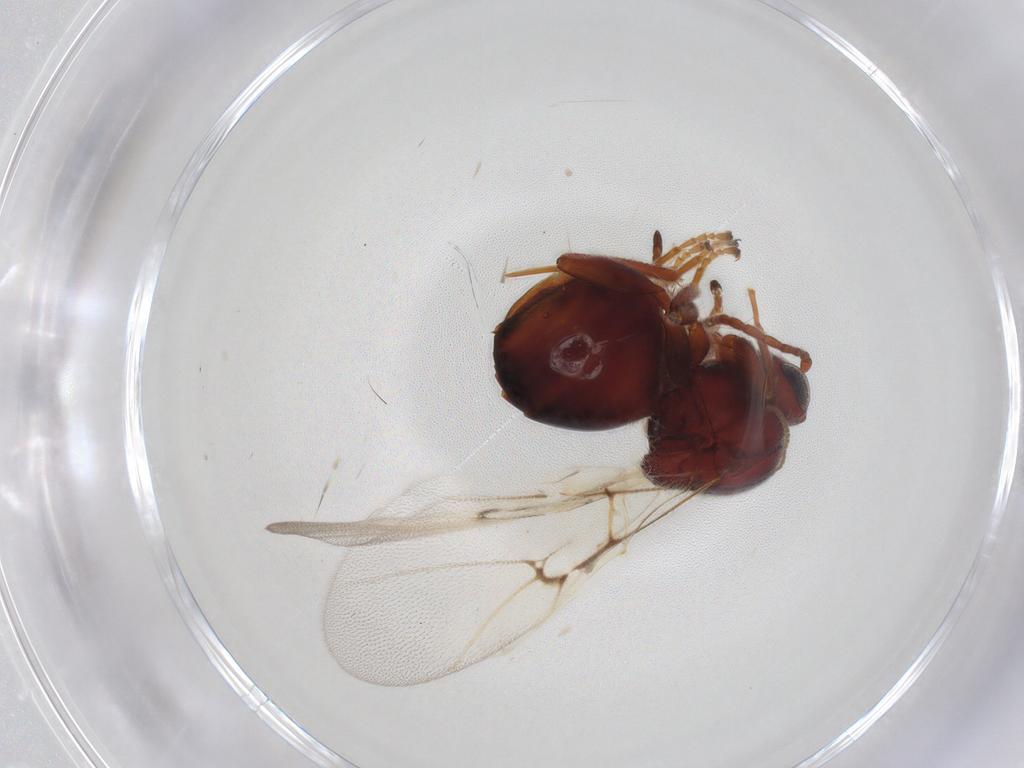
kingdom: Animalia
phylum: Arthropoda
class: Insecta
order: Hymenoptera
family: Cynipidae
